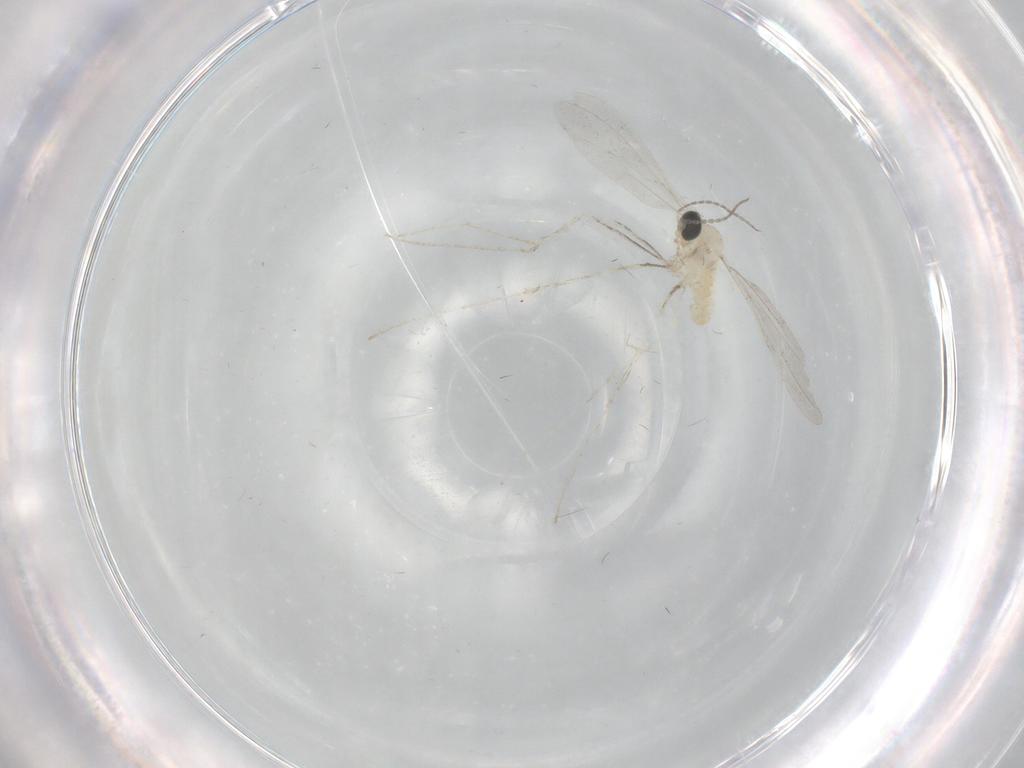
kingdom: Animalia
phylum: Arthropoda
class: Insecta
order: Diptera
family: Cecidomyiidae
